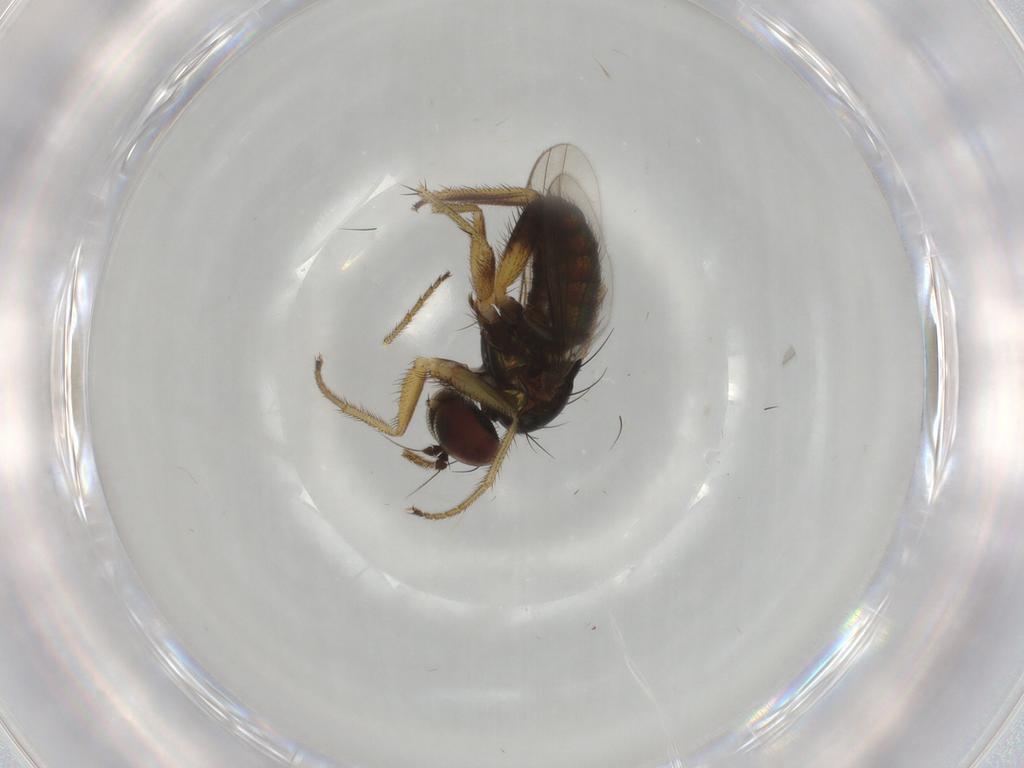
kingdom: Animalia
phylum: Arthropoda
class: Insecta
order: Diptera
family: Dolichopodidae
